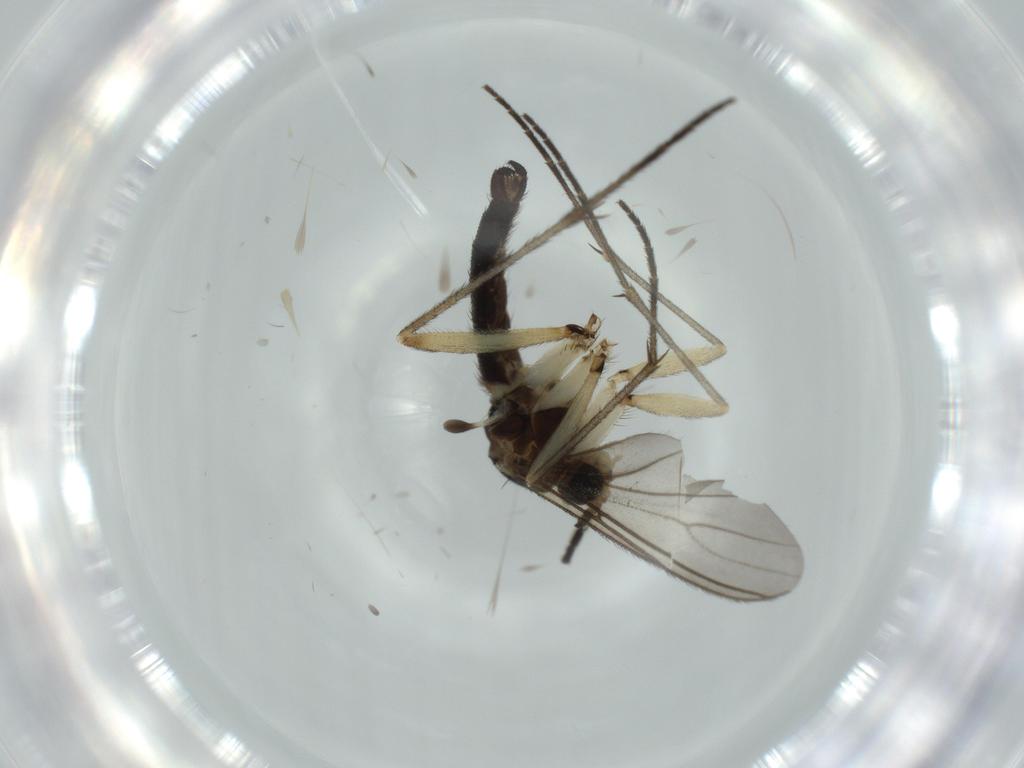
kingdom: Animalia
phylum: Arthropoda
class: Insecta
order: Diptera
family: Sciaridae
